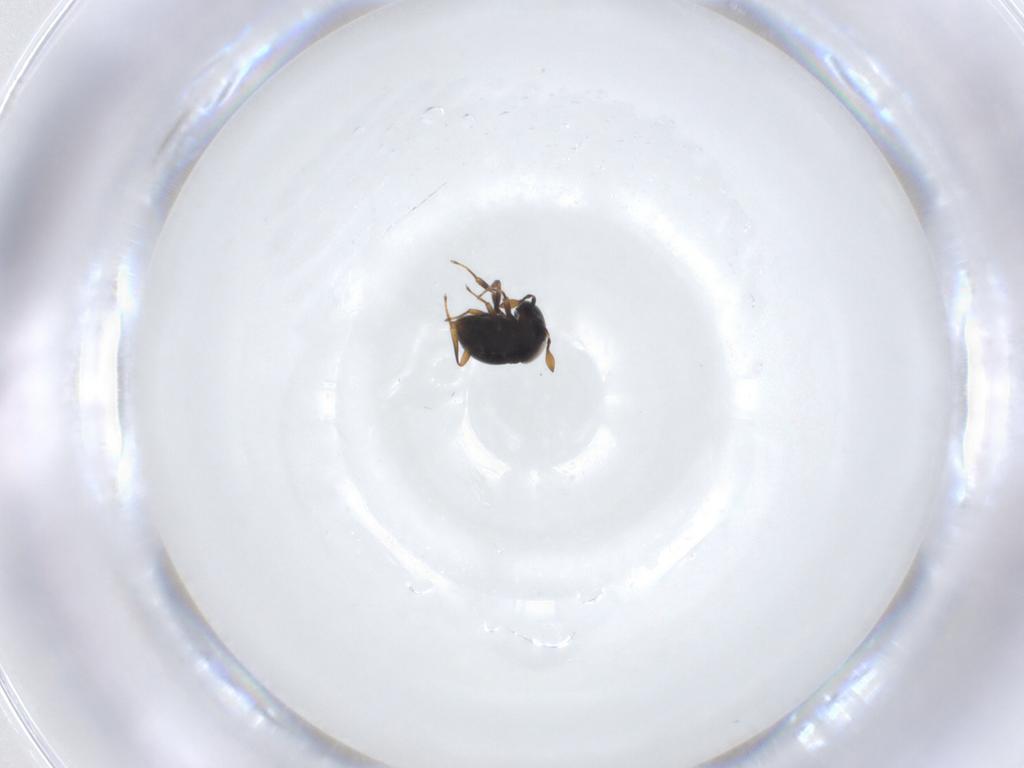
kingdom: Animalia
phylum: Arthropoda
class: Insecta
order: Hymenoptera
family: Scelionidae
